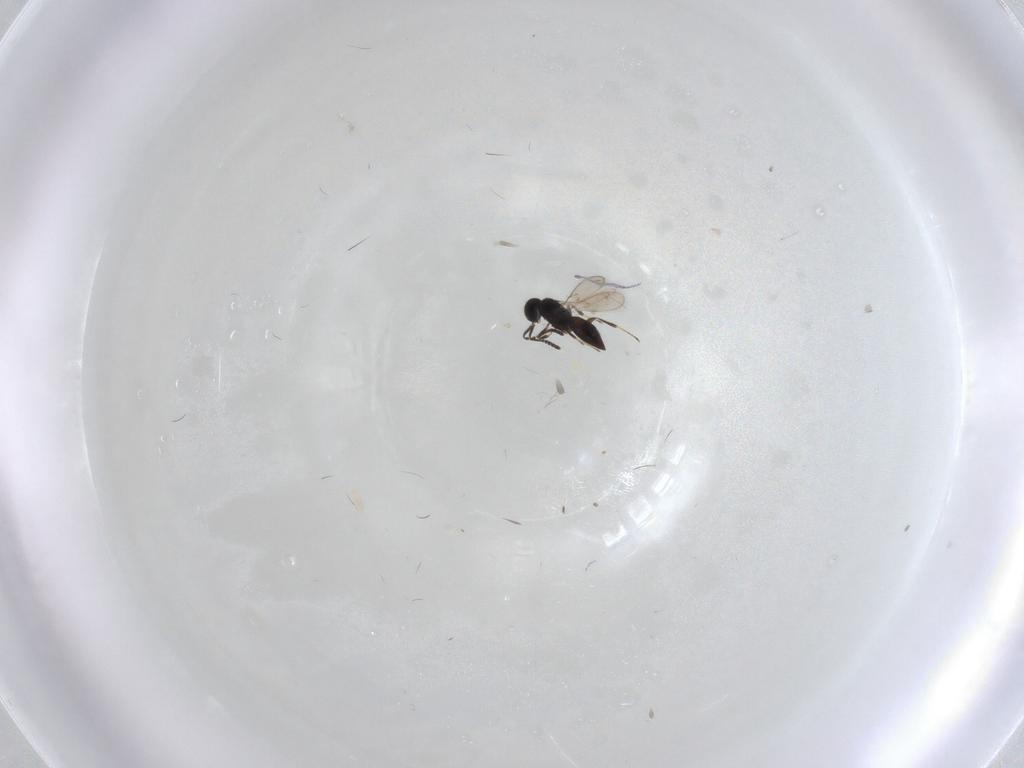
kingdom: Animalia
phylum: Arthropoda
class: Insecta
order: Hymenoptera
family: Scelionidae
